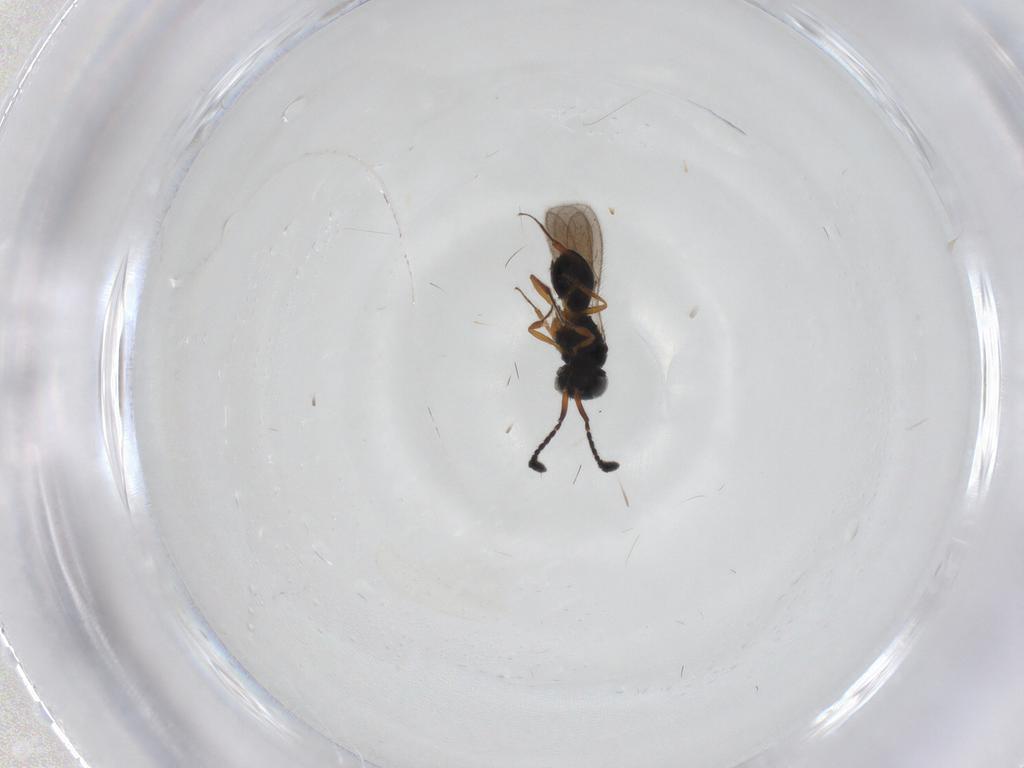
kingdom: Animalia
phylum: Arthropoda
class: Insecta
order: Hymenoptera
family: Scelionidae
